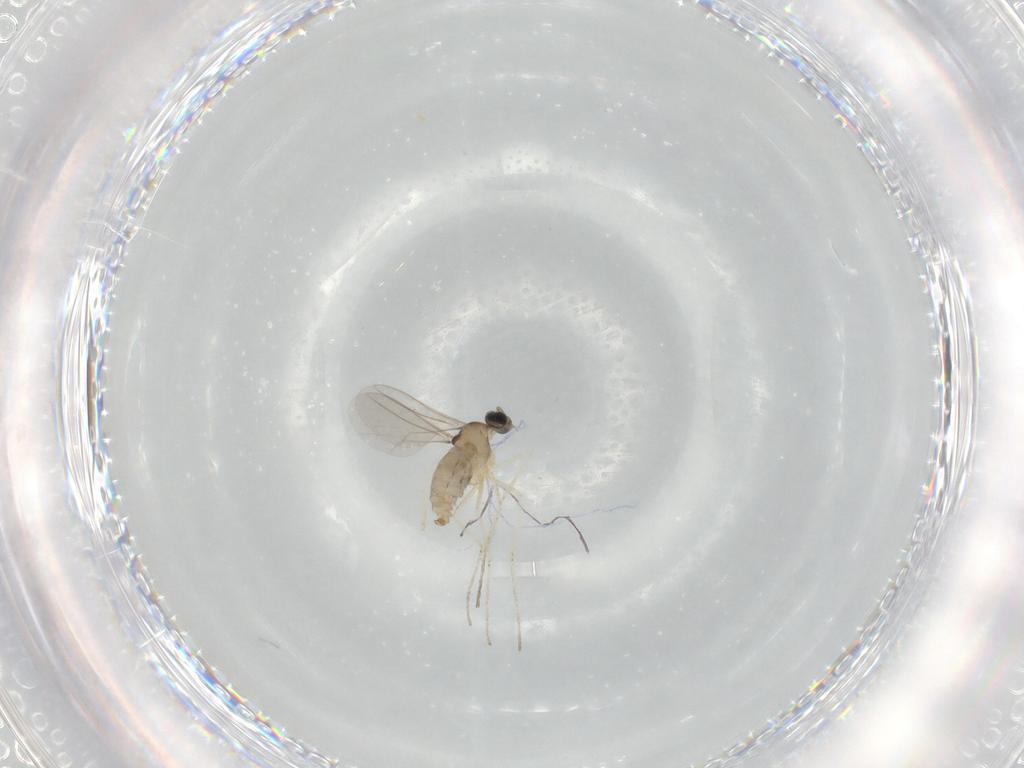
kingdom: Animalia
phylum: Arthropoda
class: Insecta
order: Diptera
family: Cecidomyiidae
